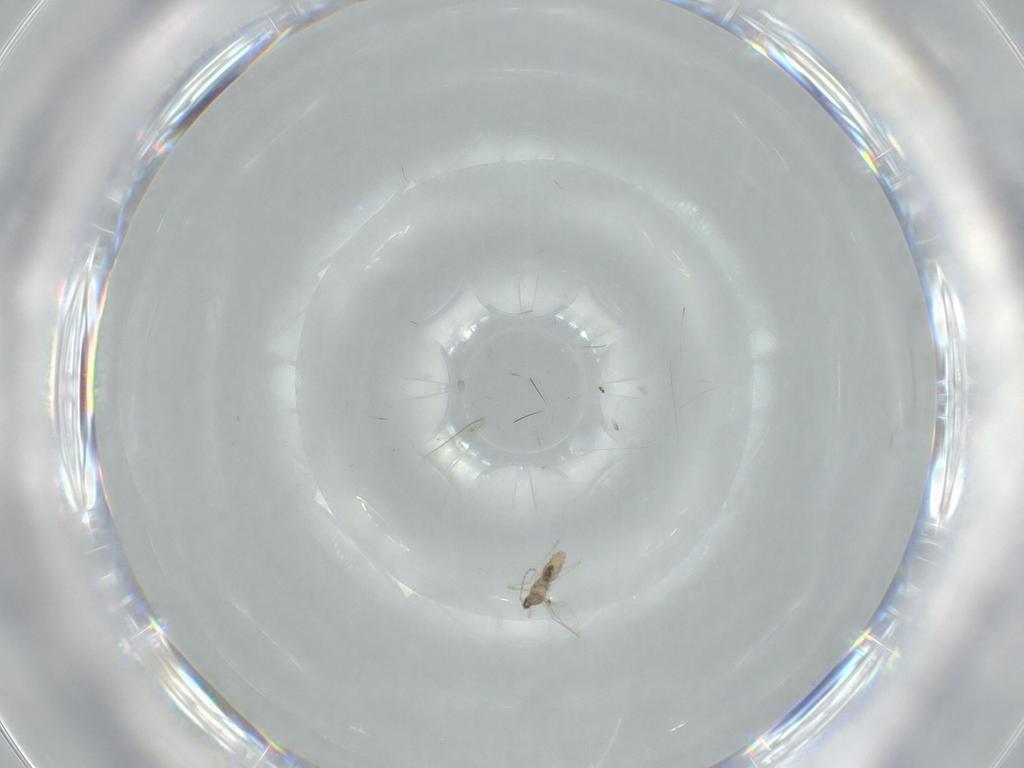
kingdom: Animalia
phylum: Arthropoda
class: Insecta
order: Diptera
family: Cecidomyiidae
